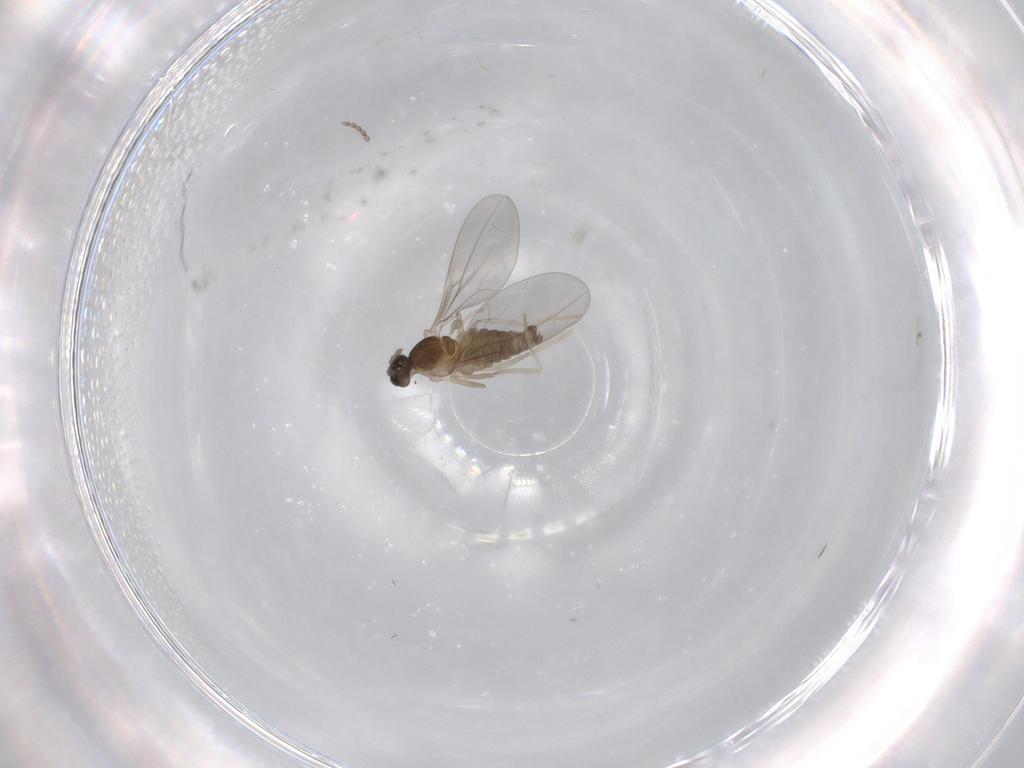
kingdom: Animalia
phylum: Arthropoda
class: Insecta
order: Diptera
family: Cecidomyiidae
